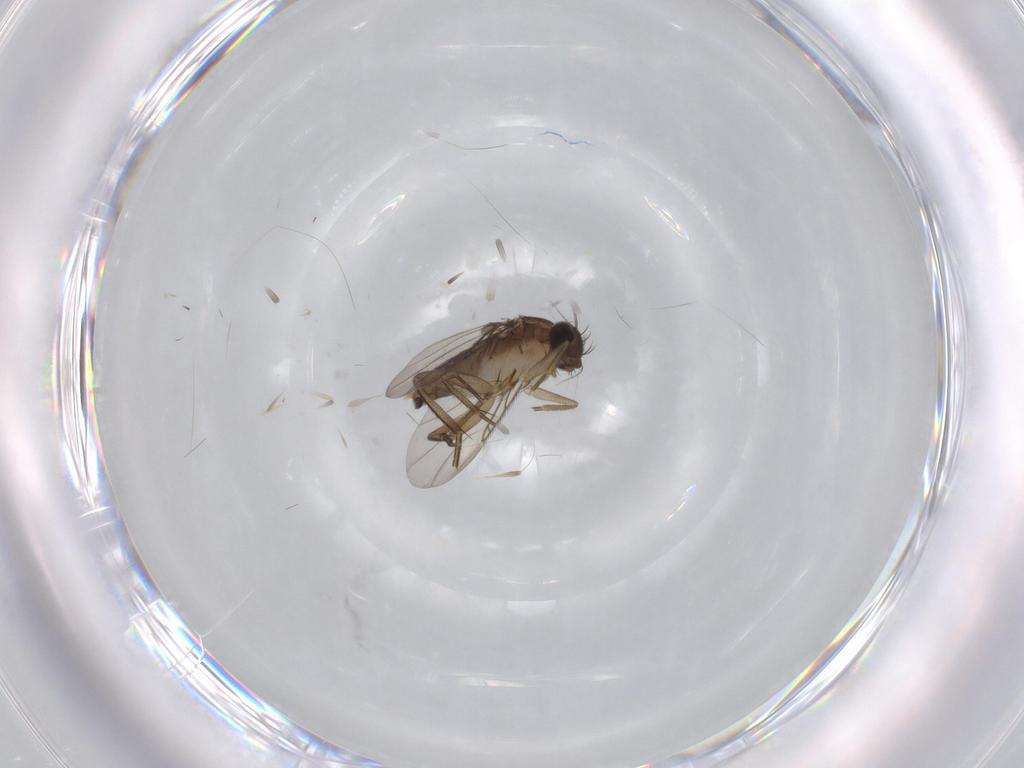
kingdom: Animalia
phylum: Arthropoda
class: Insecta
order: Diptera
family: Phoridae
